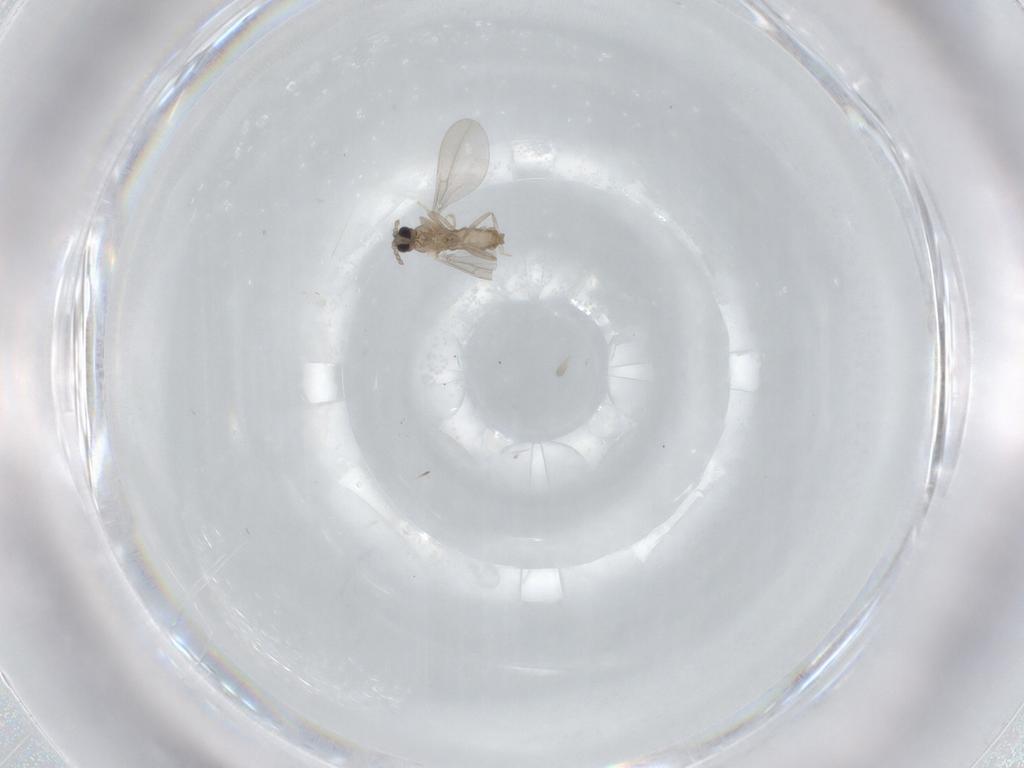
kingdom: Animalia
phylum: Arthropoda
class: Insecta
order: Diptera
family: Cecidomyiidae
